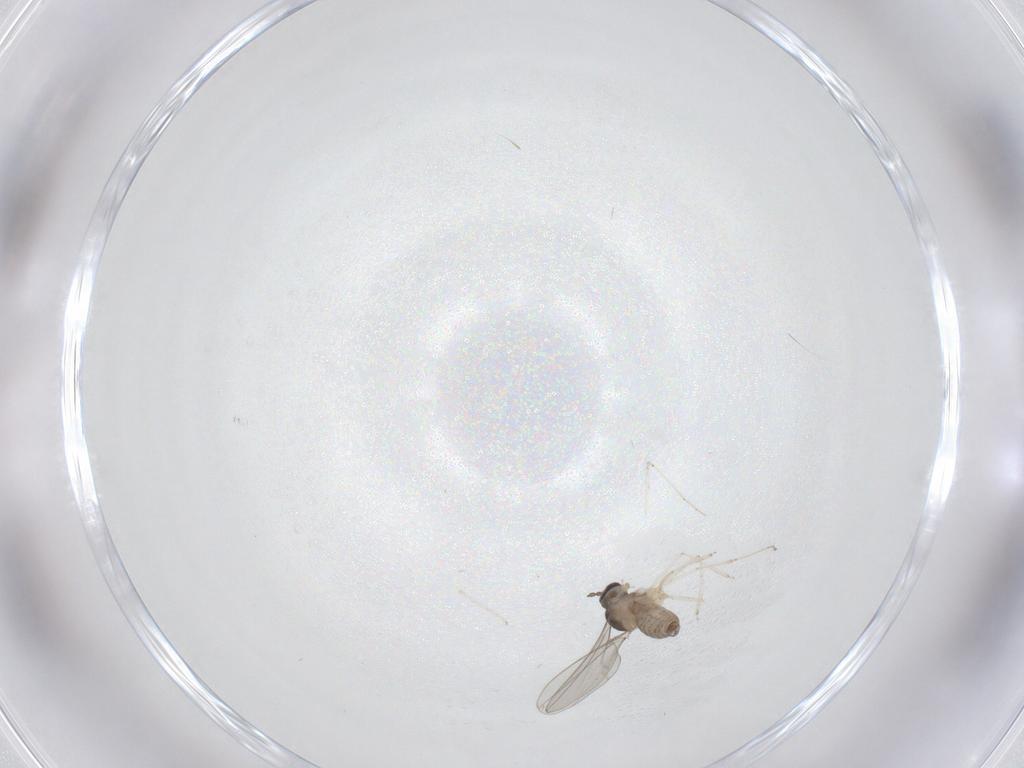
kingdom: Animalia
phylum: Arthropoda
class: Insecta
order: Diptera
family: Cecidomyiidae
